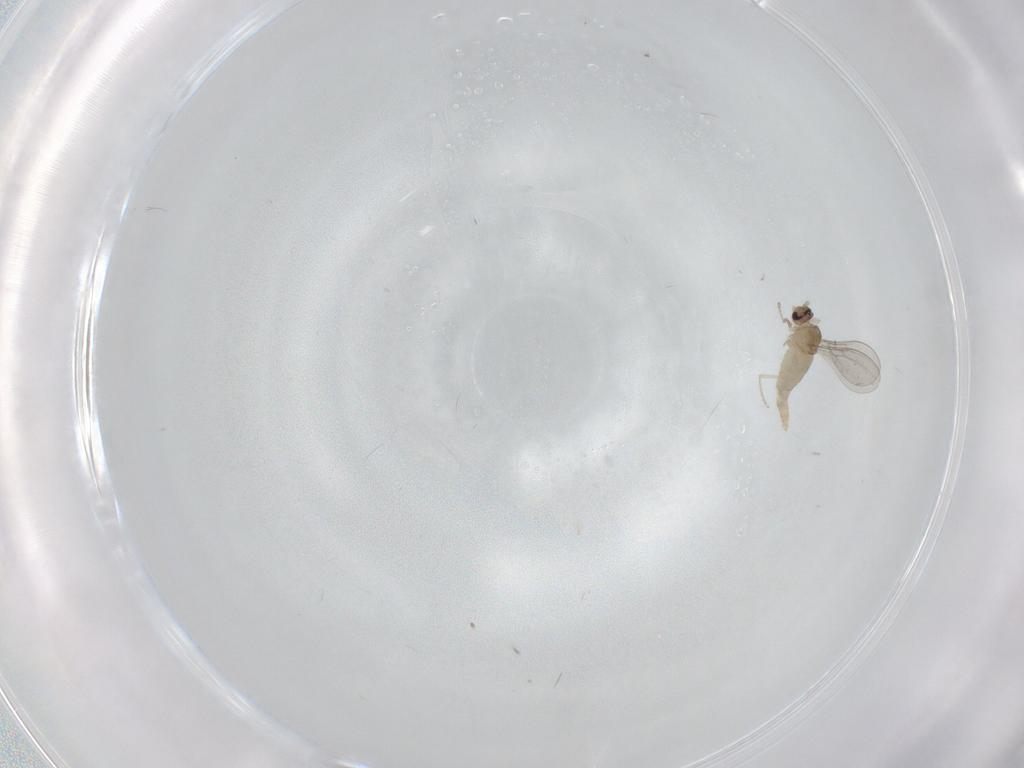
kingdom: Animalia
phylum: Arthropoda
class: Insecta
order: Diptera
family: Cecidomyiidae
